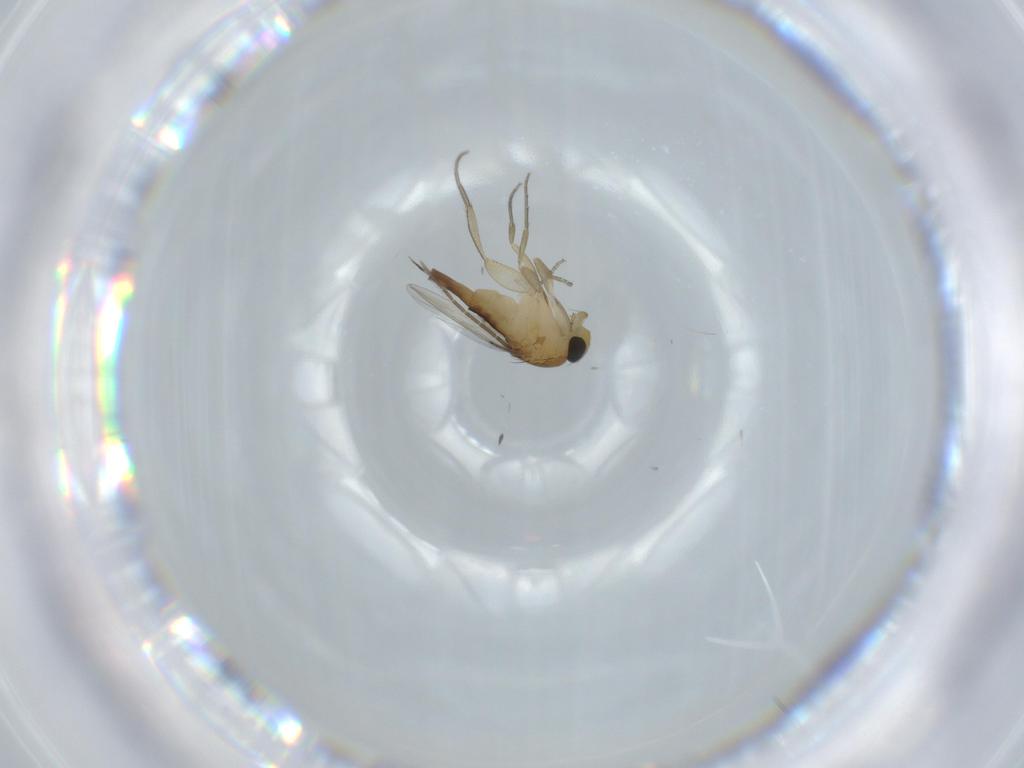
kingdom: Animalia
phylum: Arthropoda
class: Insecta
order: Diptera
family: Phoridae
